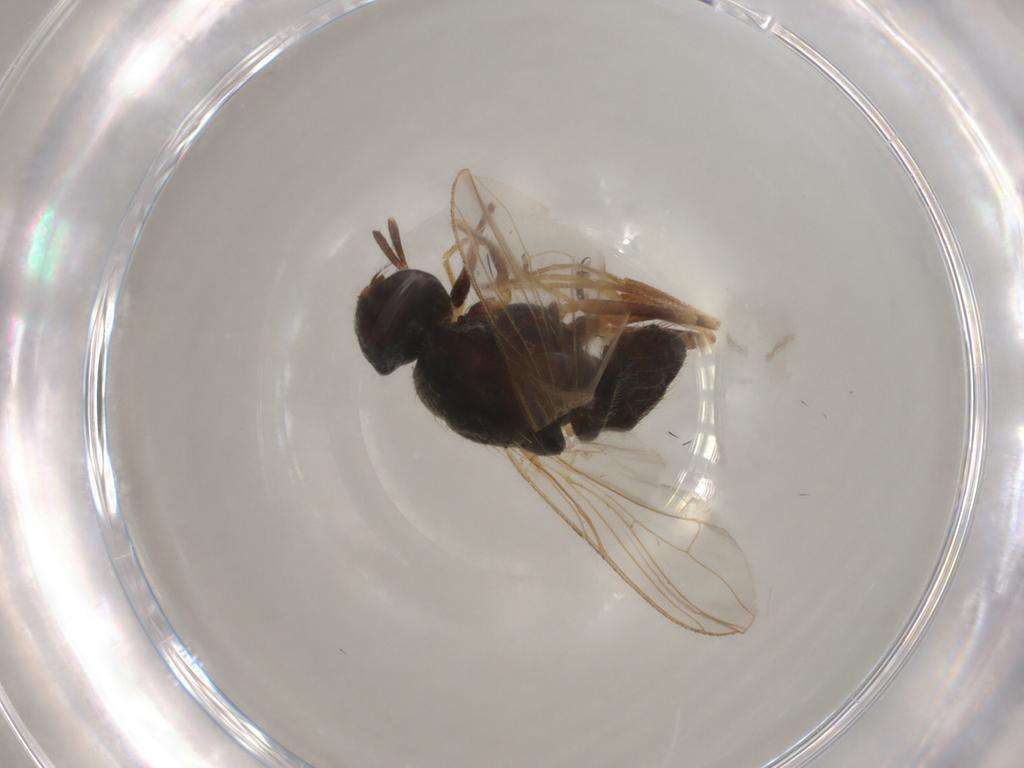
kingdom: Animalia
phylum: Arthropoda
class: Insecta
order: Diptera
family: Muscidae
